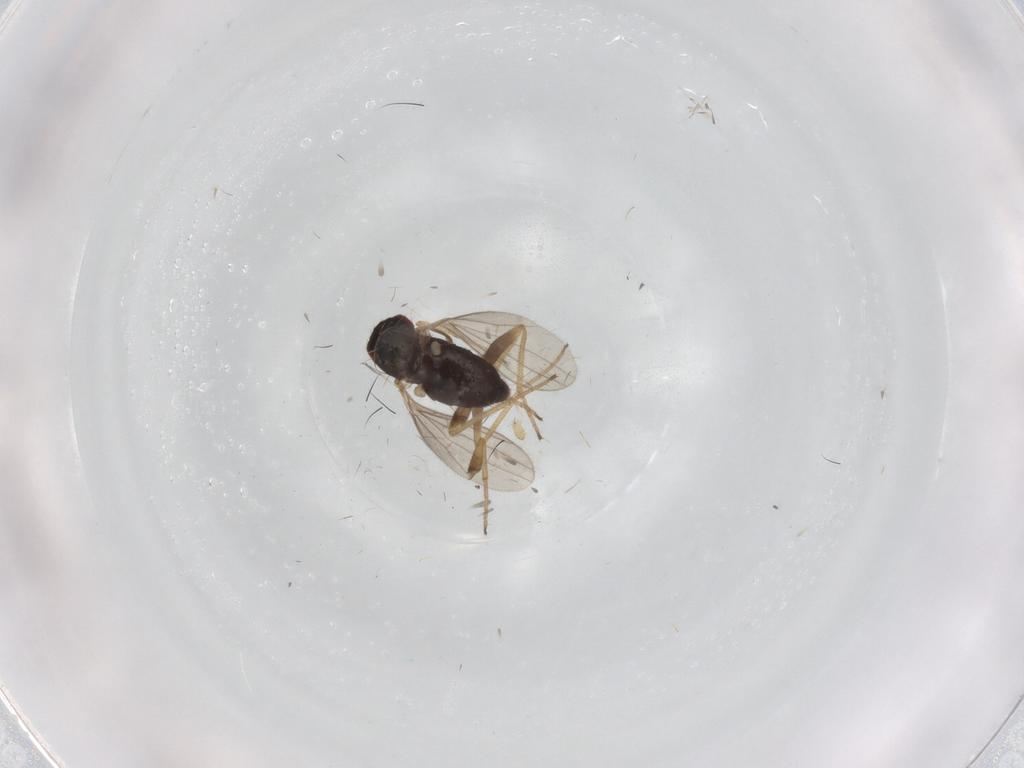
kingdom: Animalia
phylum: Arthropoda
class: Insecta
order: Diptera
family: Dolichopodidae
